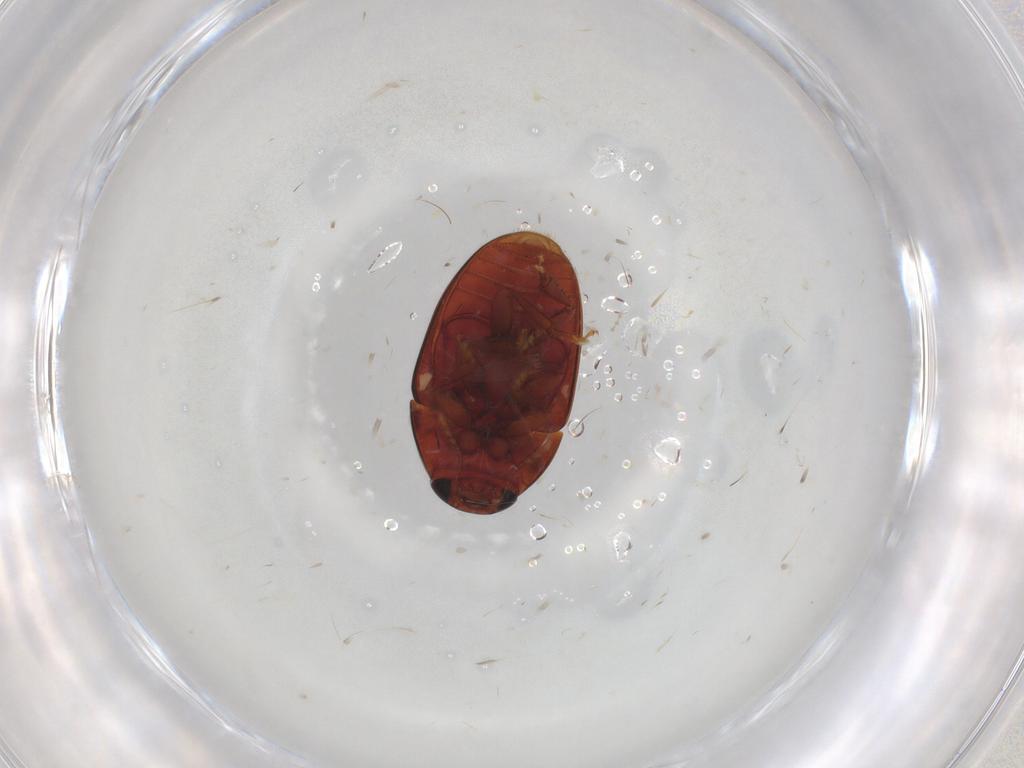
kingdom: Animalia
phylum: Arthropoda
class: Insecta
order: Coleoptera
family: Phalacridae
